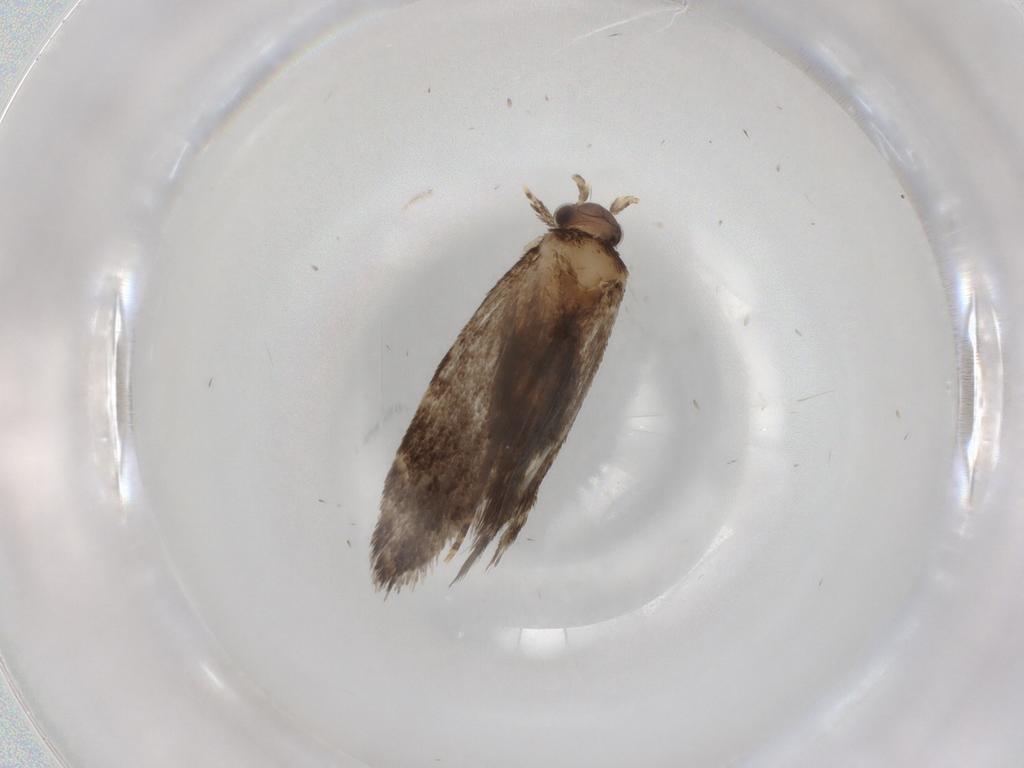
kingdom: Animalia
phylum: Arthropoda
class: Insecta
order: Lepidoptera
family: Dryadaulidae
